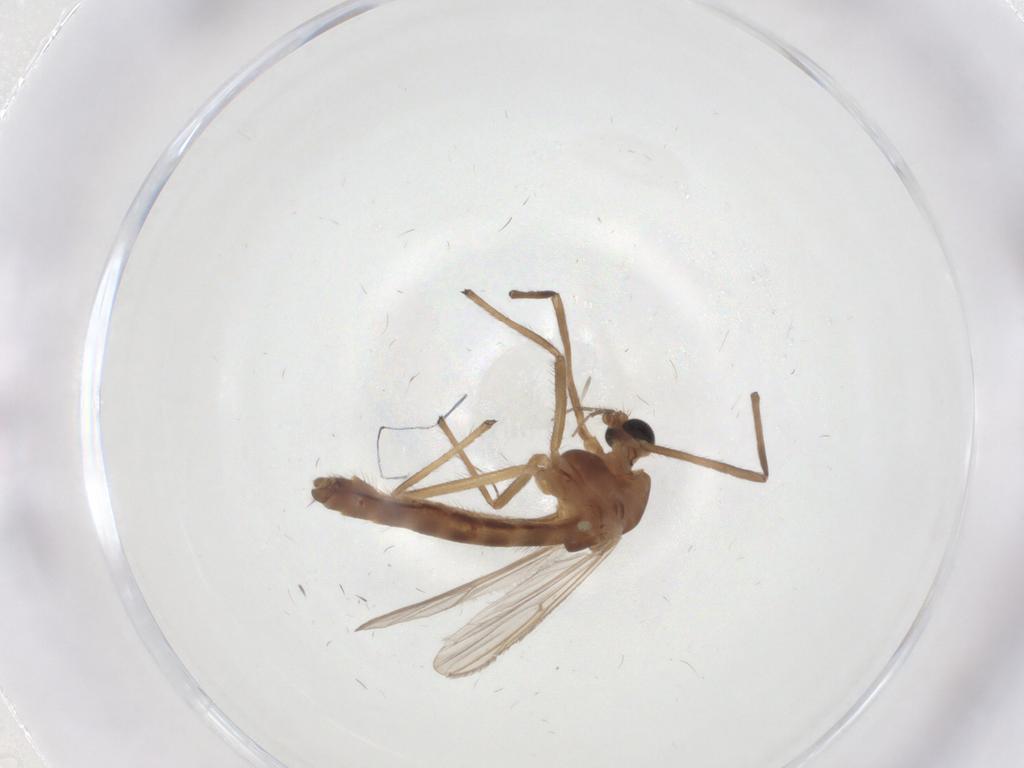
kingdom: Animalia
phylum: Arthropoda
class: Insecta
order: Diptera
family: Chironomidae
